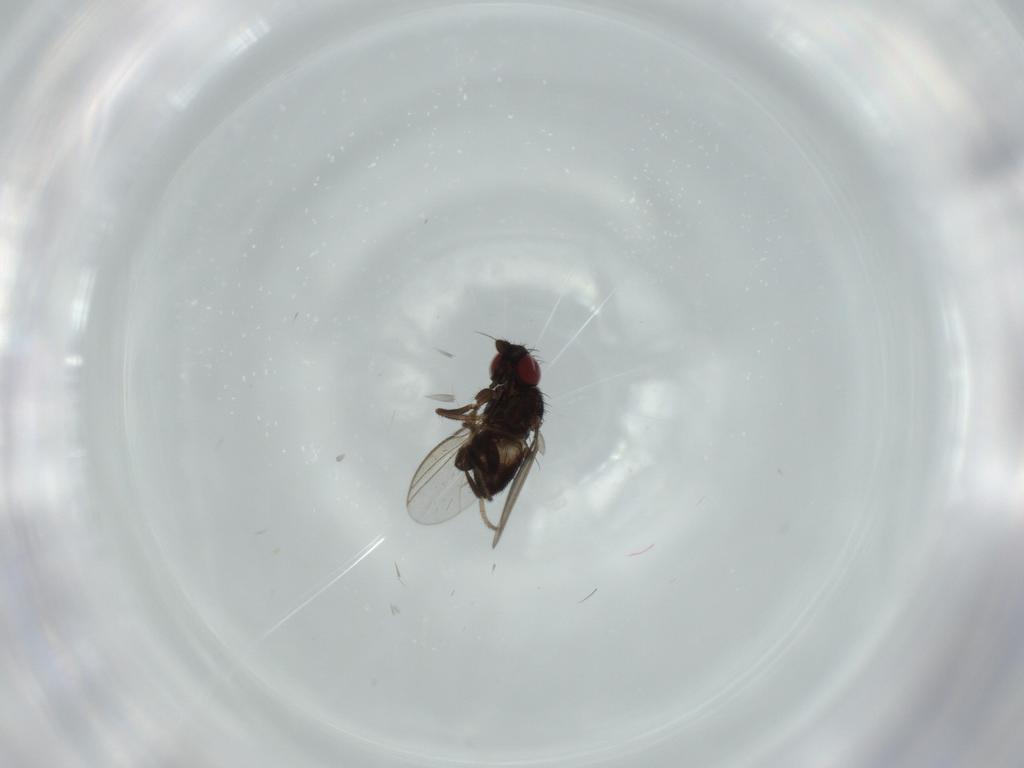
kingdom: Animalia
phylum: Arthropoda
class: Insecta
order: Diptera
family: Milichiidae
